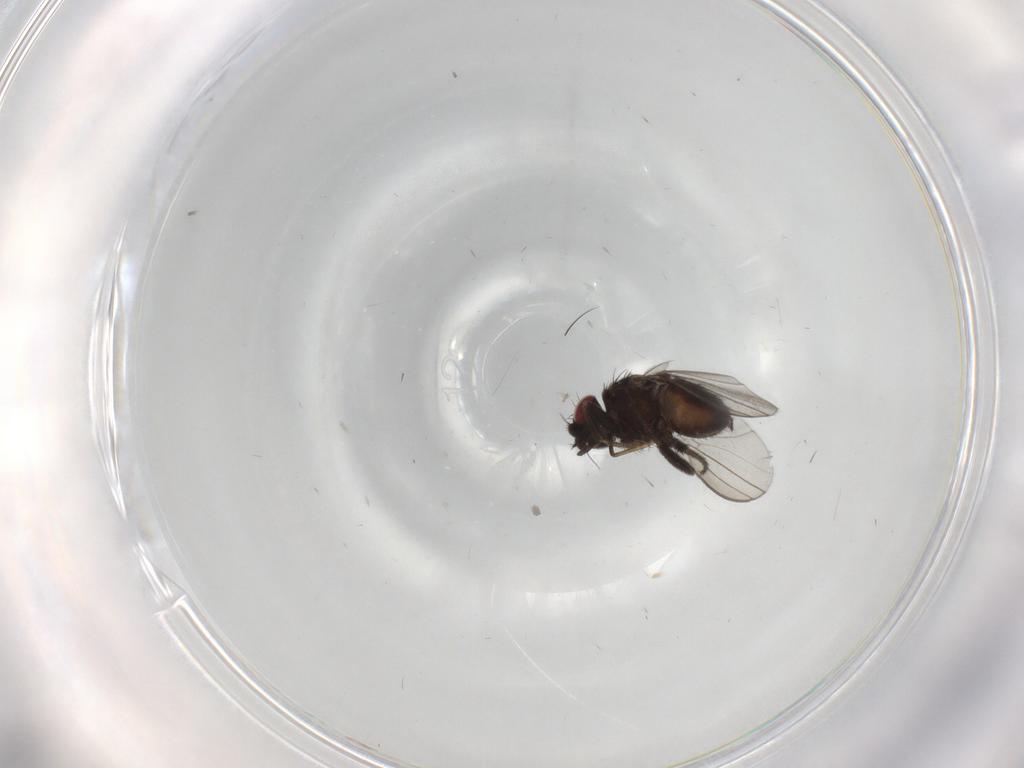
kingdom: Animalia
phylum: Arthropoda
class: Insecta
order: Diptera
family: Milichiidae
